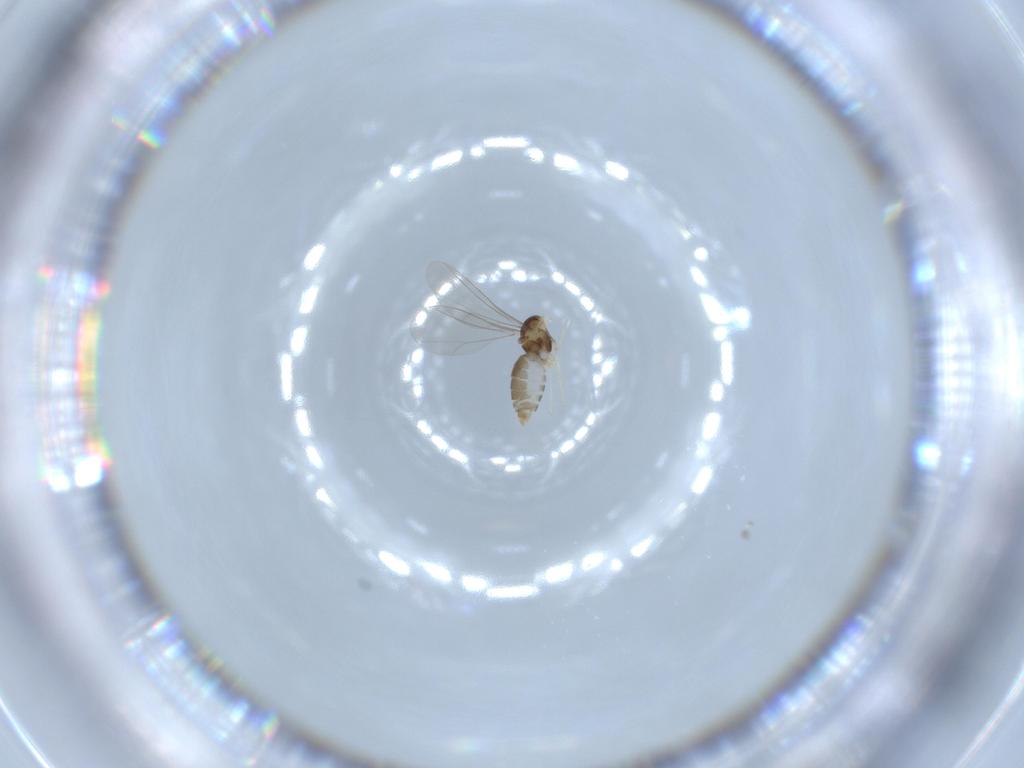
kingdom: Animalia
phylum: Arthropoda
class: Insecta
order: Diptera
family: Cecidomyiidae
